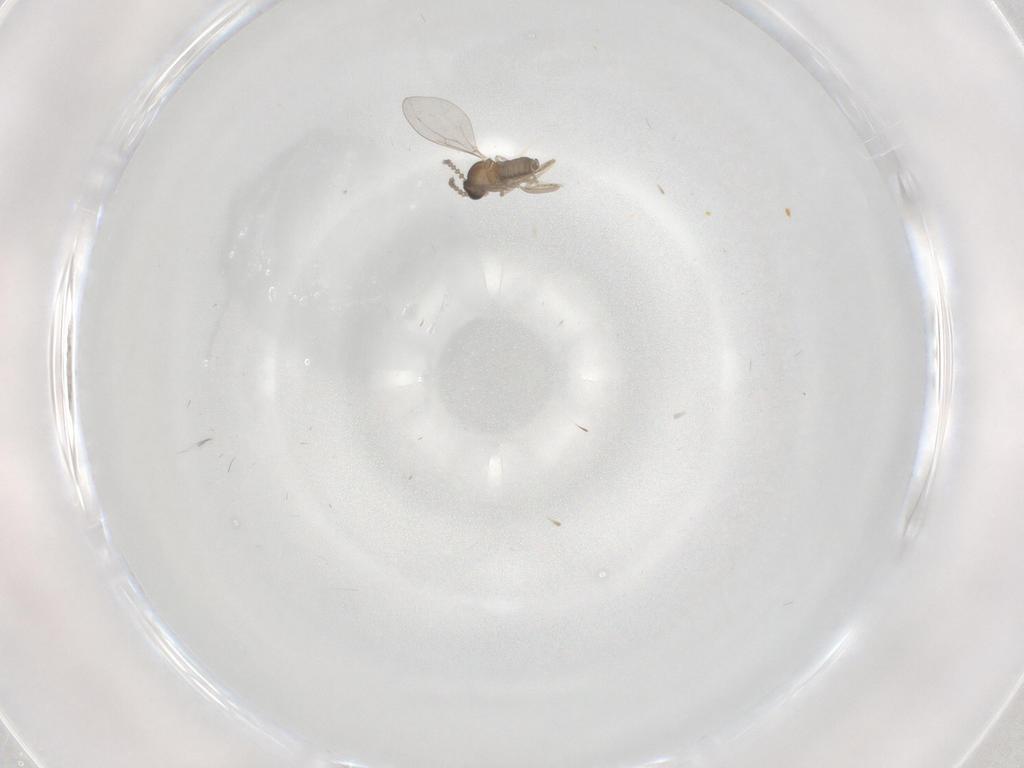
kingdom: Animalia
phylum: Arthropoda
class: Insecta
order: Diptera
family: Cecidomyiidae
